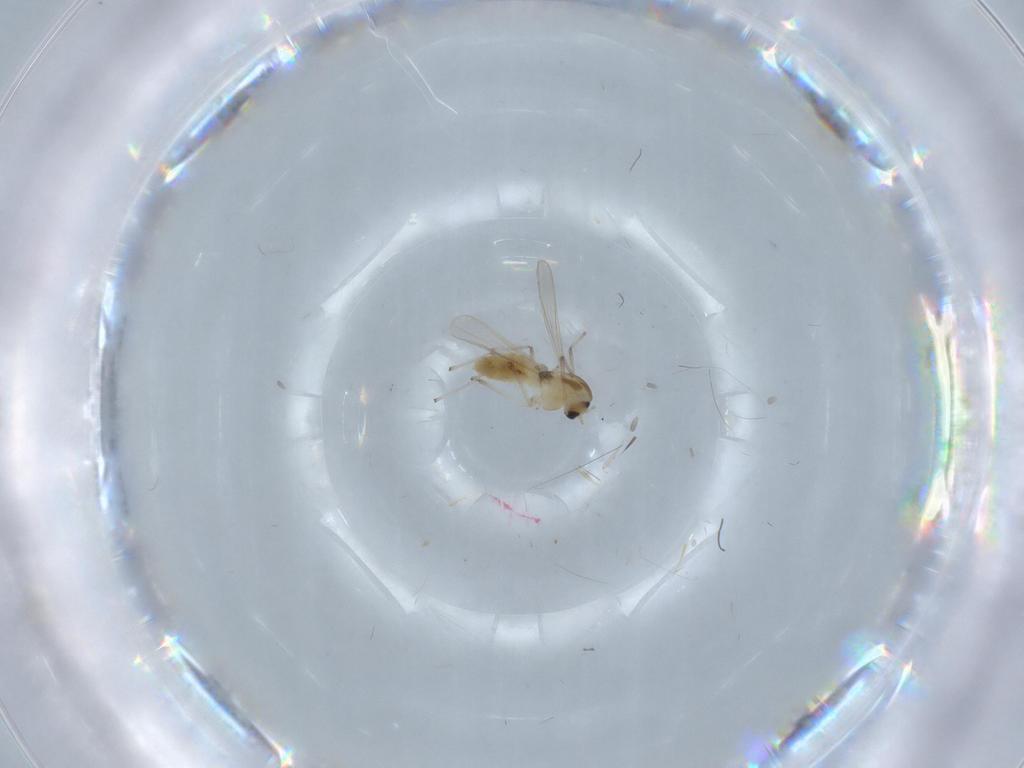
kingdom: Animalia
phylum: Arthropoda
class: Insecta
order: Diptera
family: Chironomidae
